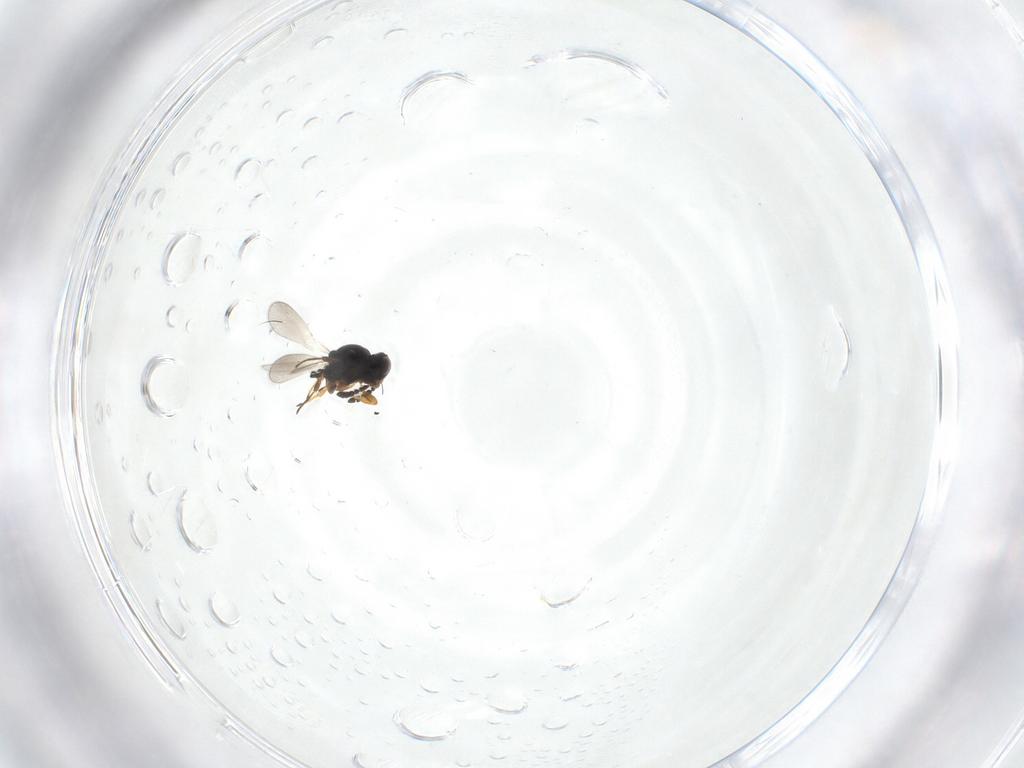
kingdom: Animalia
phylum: Arthropoda
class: Insecta
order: Hymenoptera
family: Platygastridae
